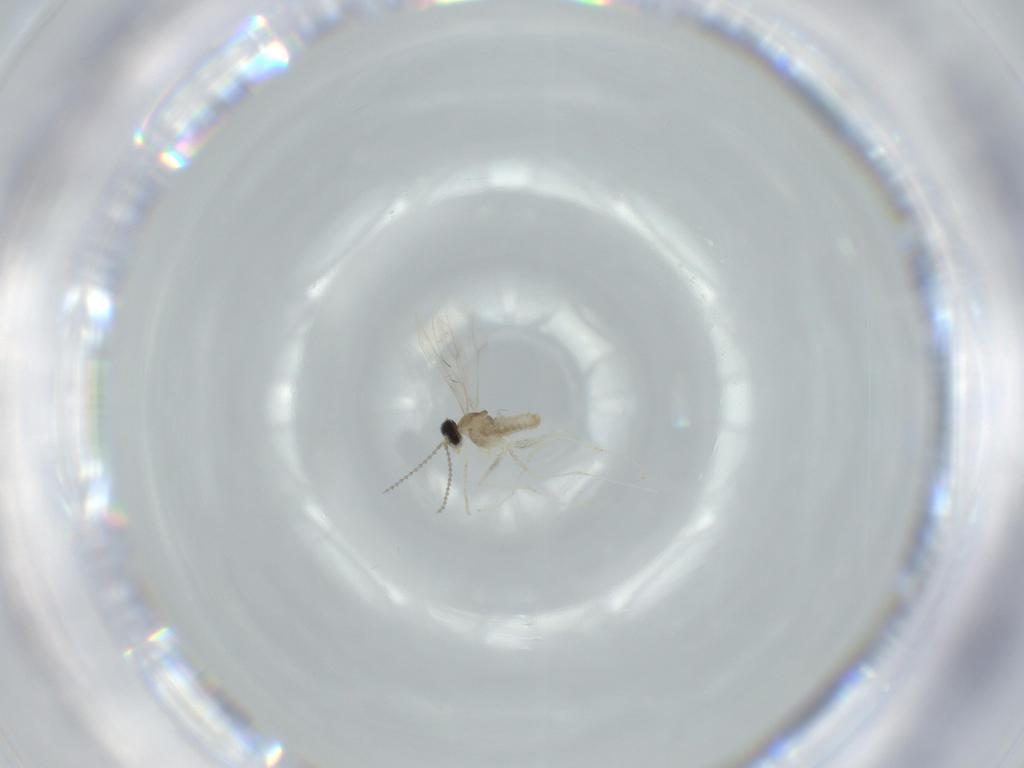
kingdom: Animalia
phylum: Arthropoda
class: Insecta
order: Diptera
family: Cecidomyiidae
